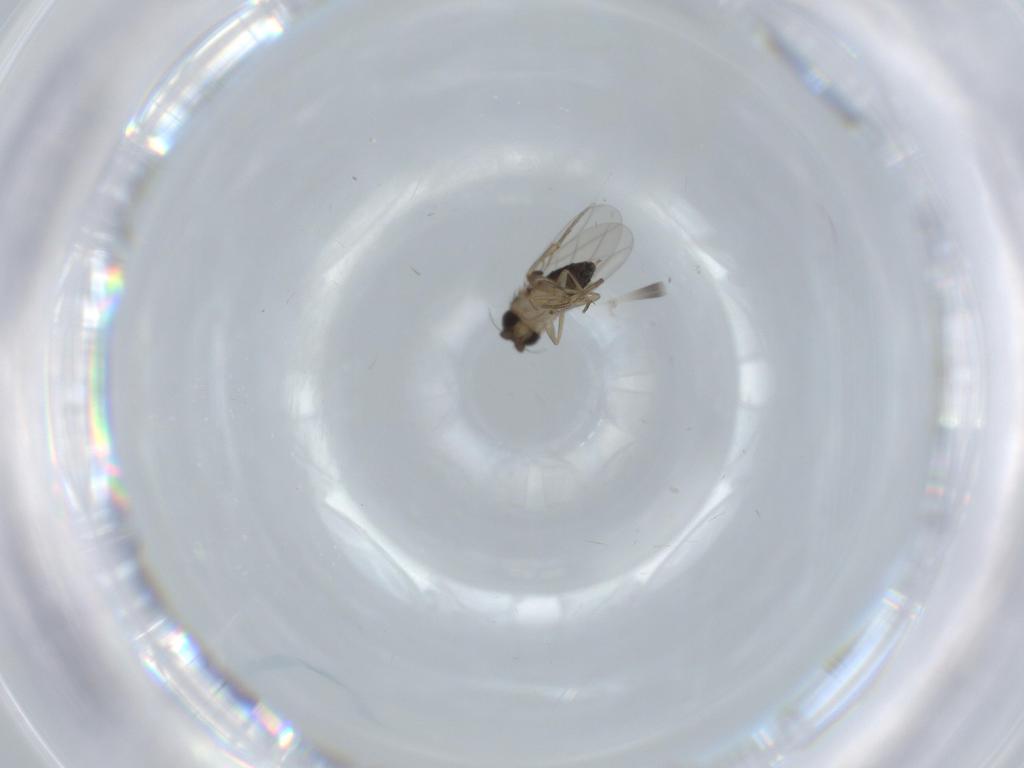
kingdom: Animalia
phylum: Arthropoda
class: Insecta
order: Diptera
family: Phoridae
